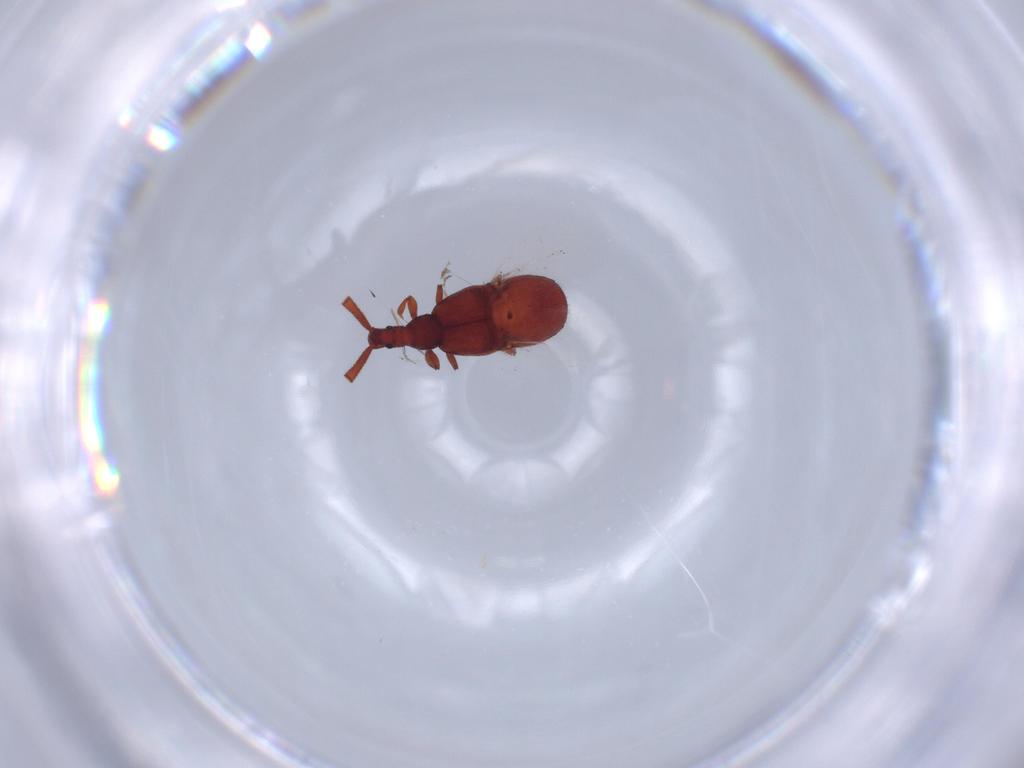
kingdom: Animalia
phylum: Arthropoda
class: Insecta
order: Coleoptera
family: Staphylinidae
